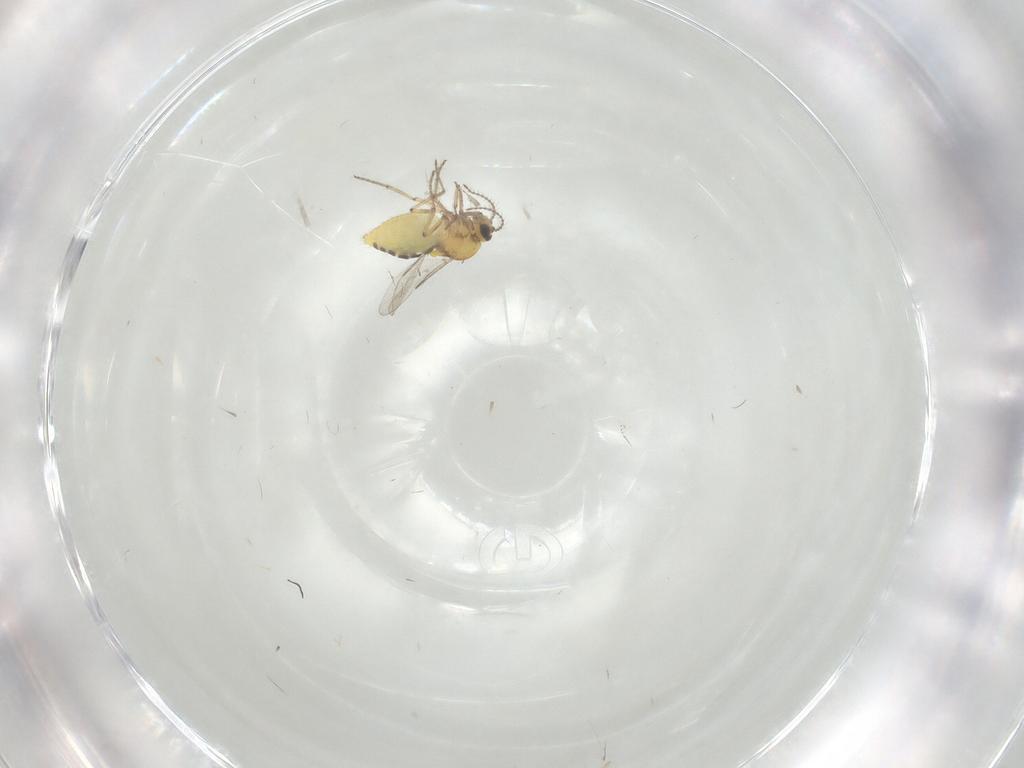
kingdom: Animalia
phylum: Arthropoda
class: Insecta
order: Diptera
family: Ceratopogonidae
